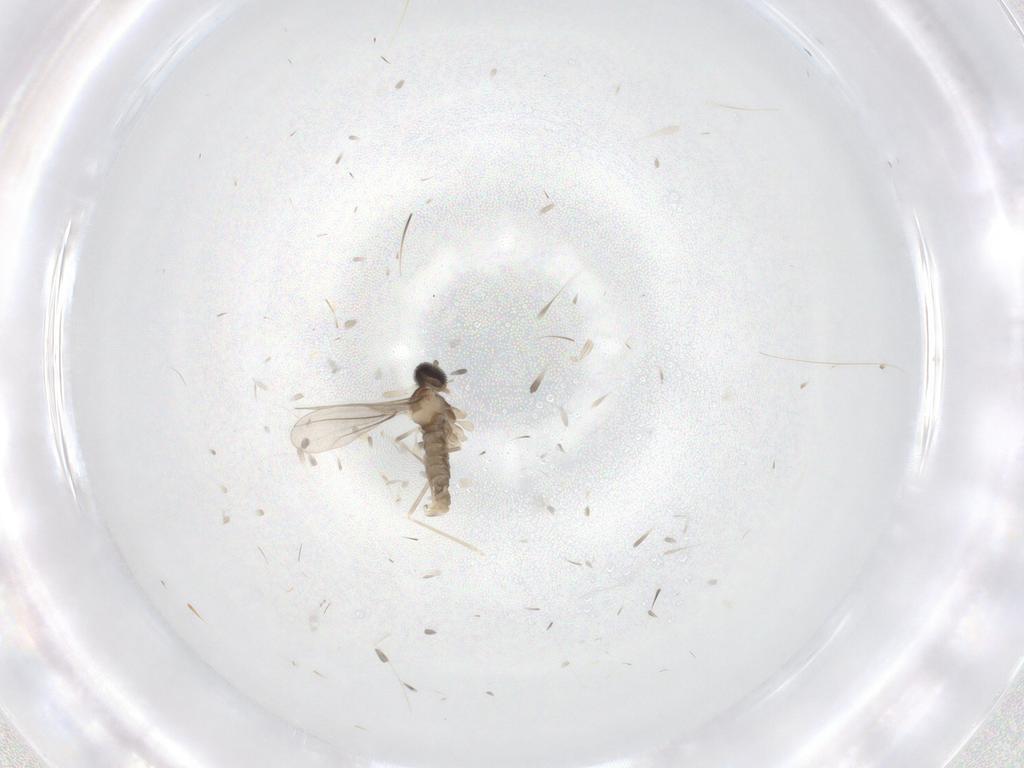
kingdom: Animalia
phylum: Arthropoda
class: Insecta
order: Diptera
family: Cecidomyiidae
